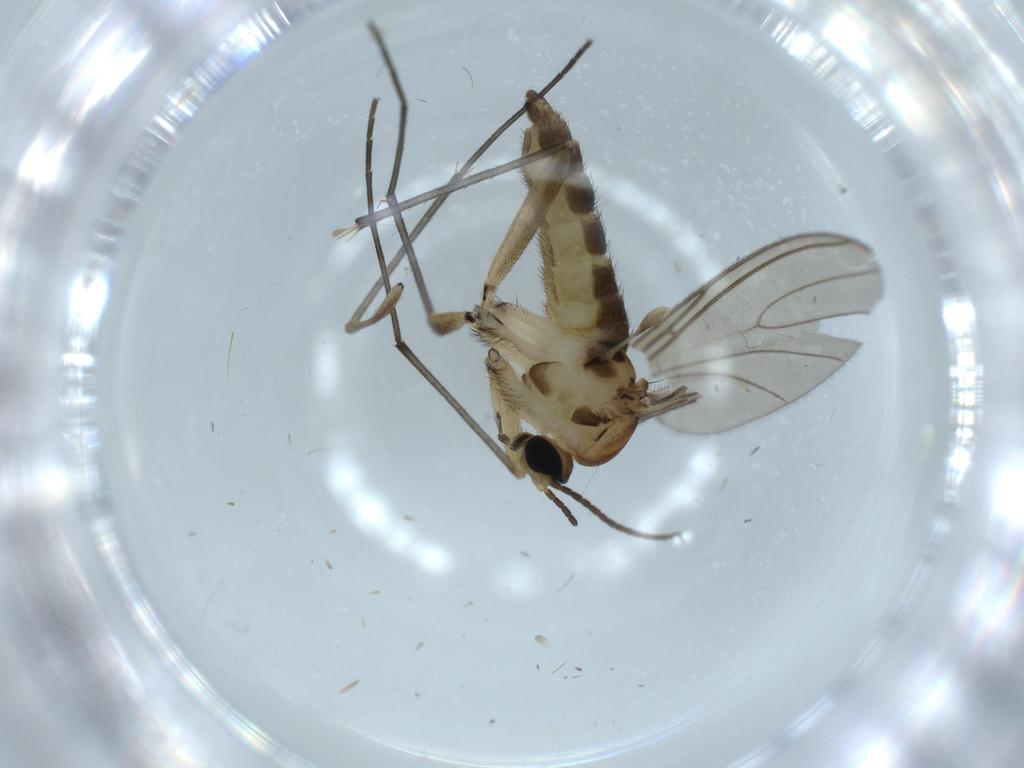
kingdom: Animalia
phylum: Arthropoda
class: Insecta
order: Diptera
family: Sciaridae
